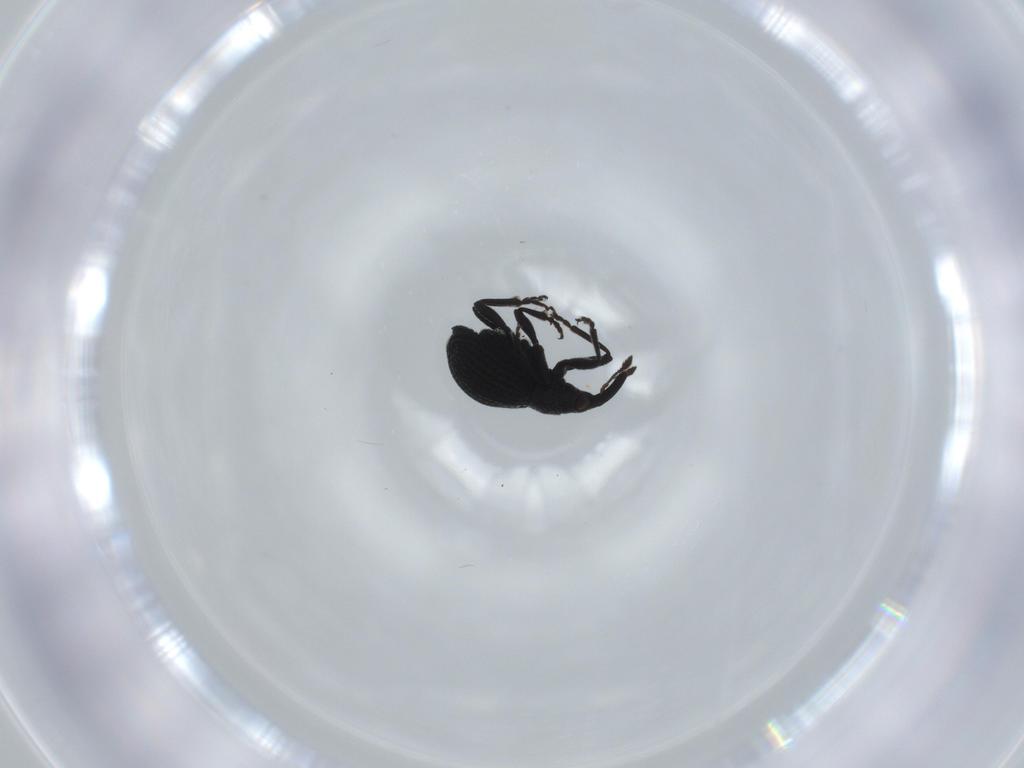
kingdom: Animalia
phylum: Arthropoda
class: Insecta
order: Coleoptera
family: Brentidae
